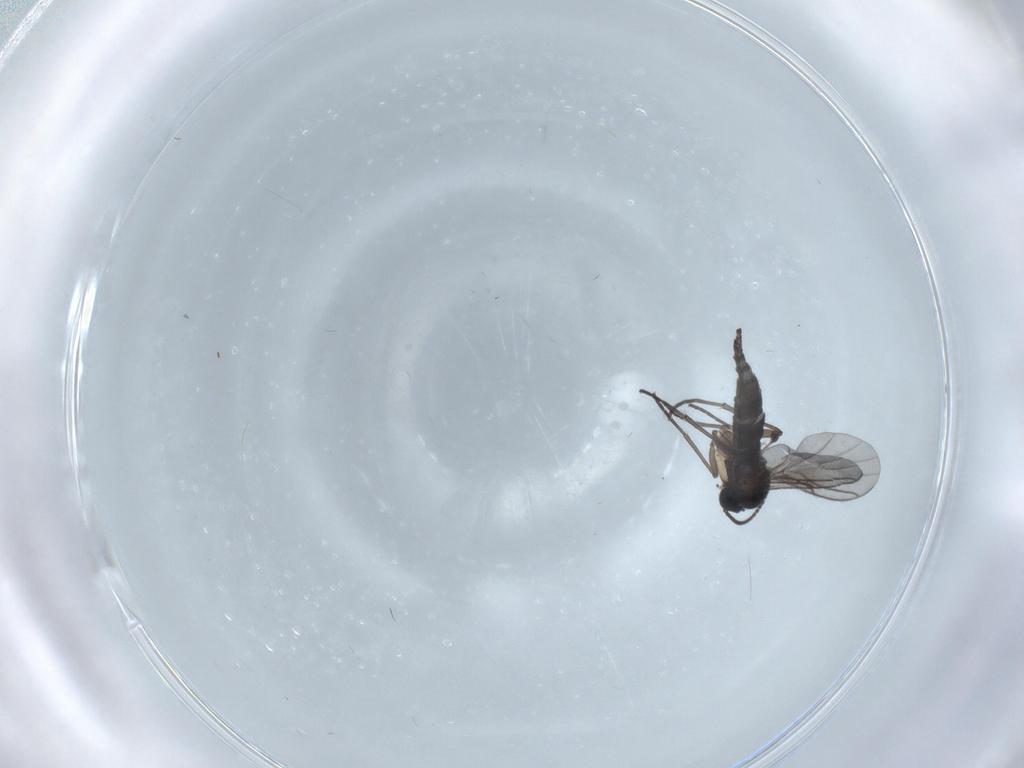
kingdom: Animalia
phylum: Arthropoda
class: Insecta
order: Diptera
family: Sciaridae
